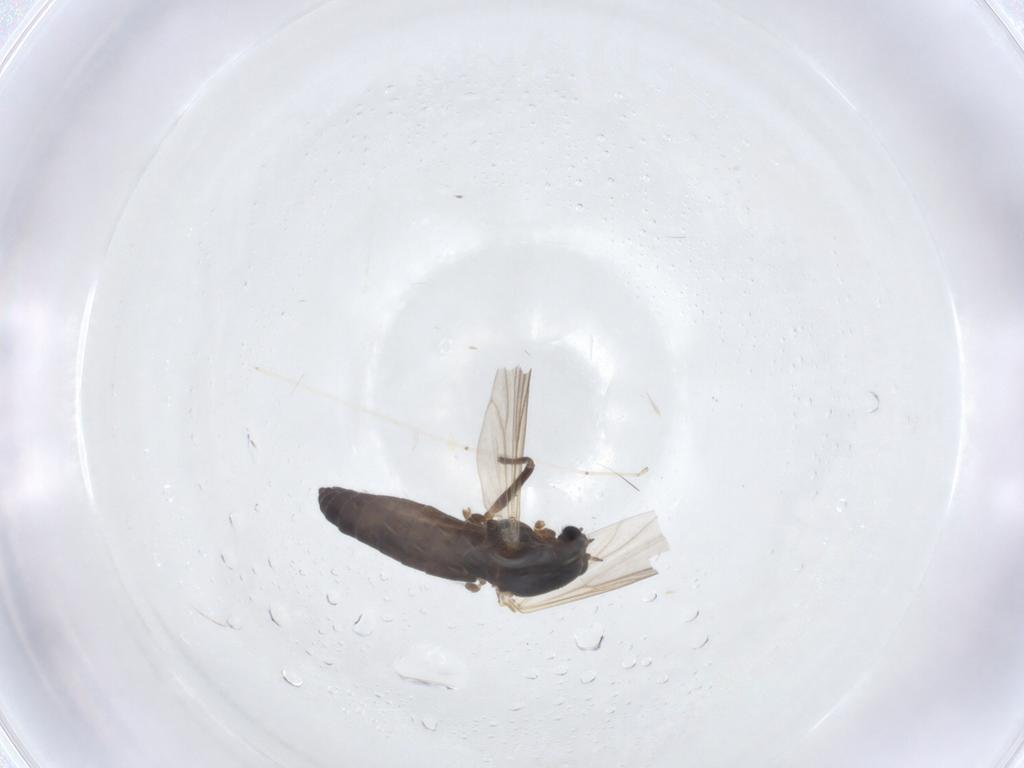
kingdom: Animalia
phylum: Arthropoda
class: Insecta
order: Diptera
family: Chironomidae
